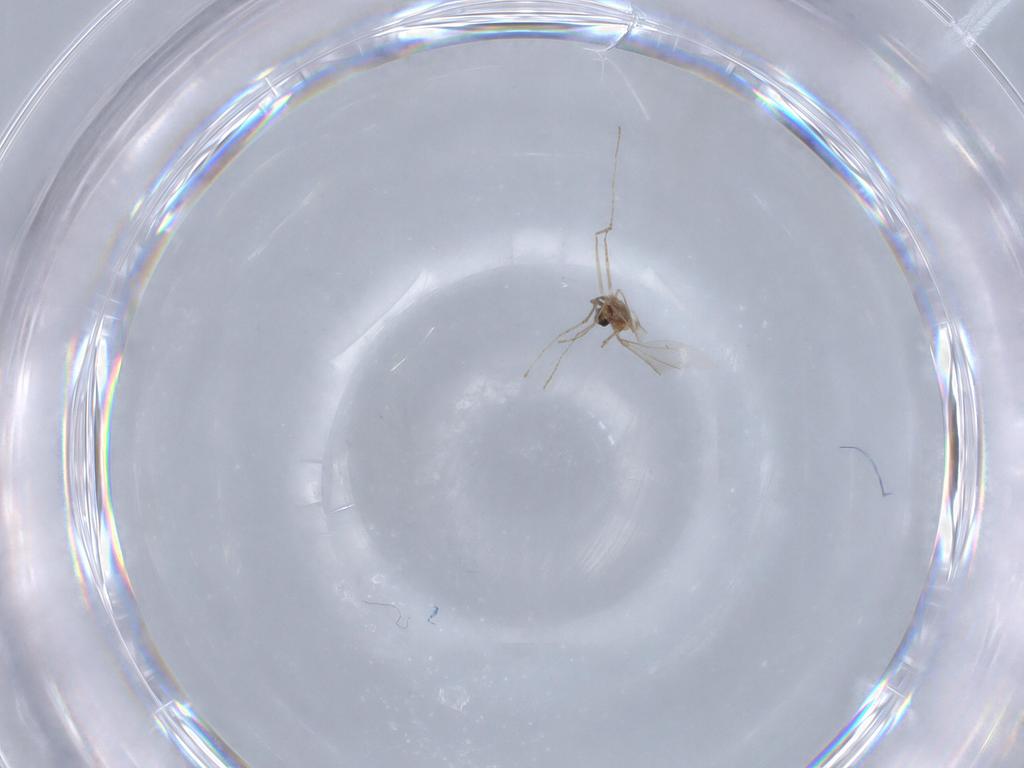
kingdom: Animalia
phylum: Arthropoda
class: Insecta
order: Diptera
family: Cecidomyiidae
